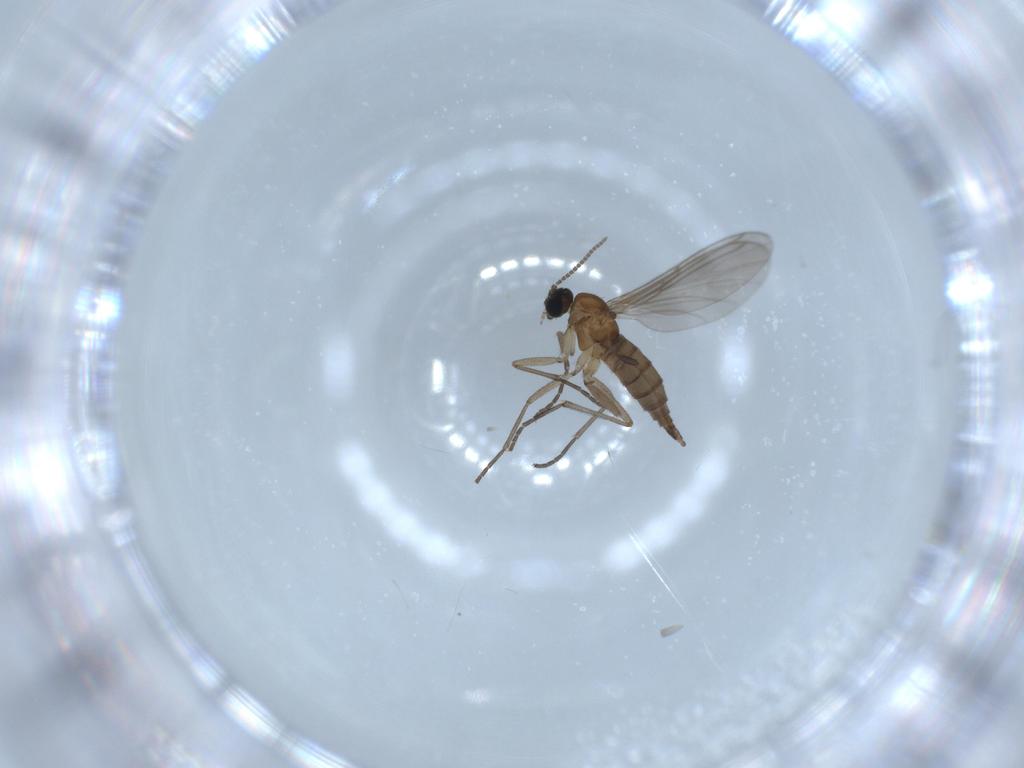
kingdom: Animalia
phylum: Arthropoda
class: Insecta
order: Diptera
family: Sciaridae
